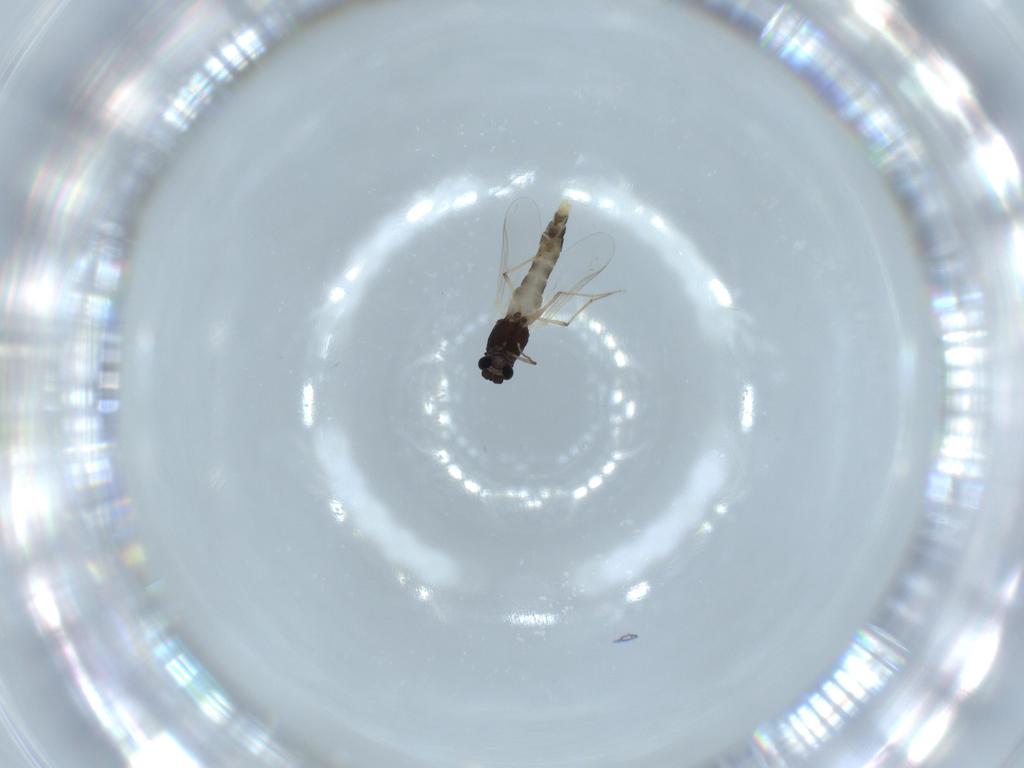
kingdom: Animalia
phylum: Arthropoda
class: Insecta
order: Diptera
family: Chironomidae
